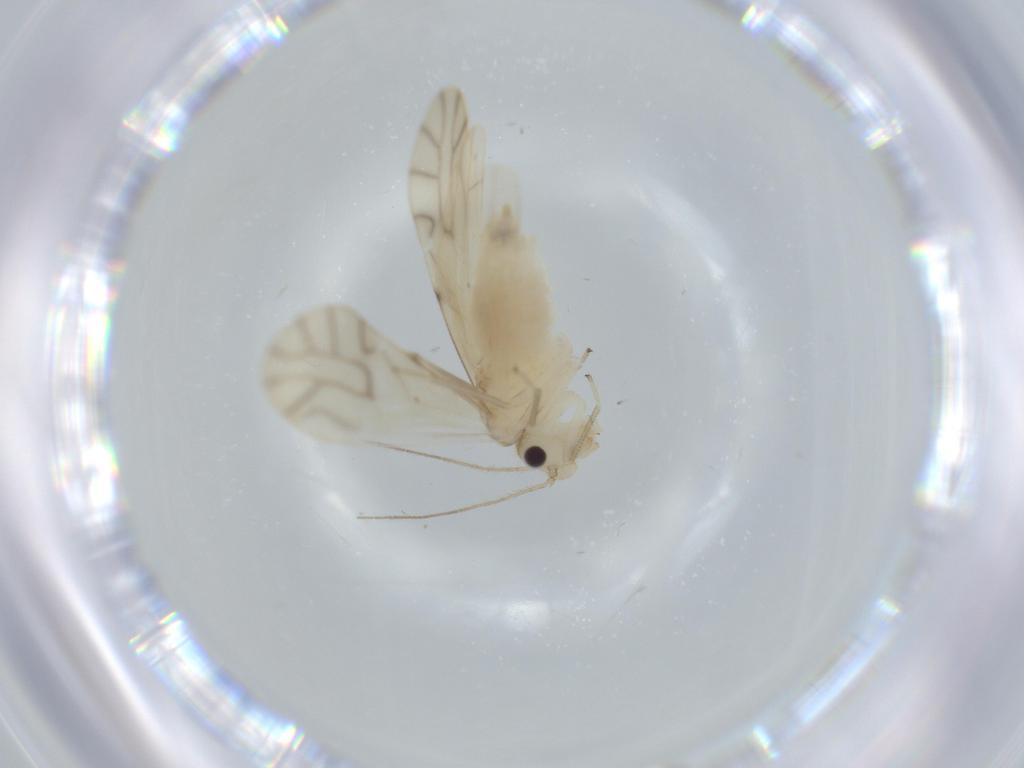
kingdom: Animalia
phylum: Arthropoda
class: Insecta
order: Psocodea
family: Caeciliusidae
